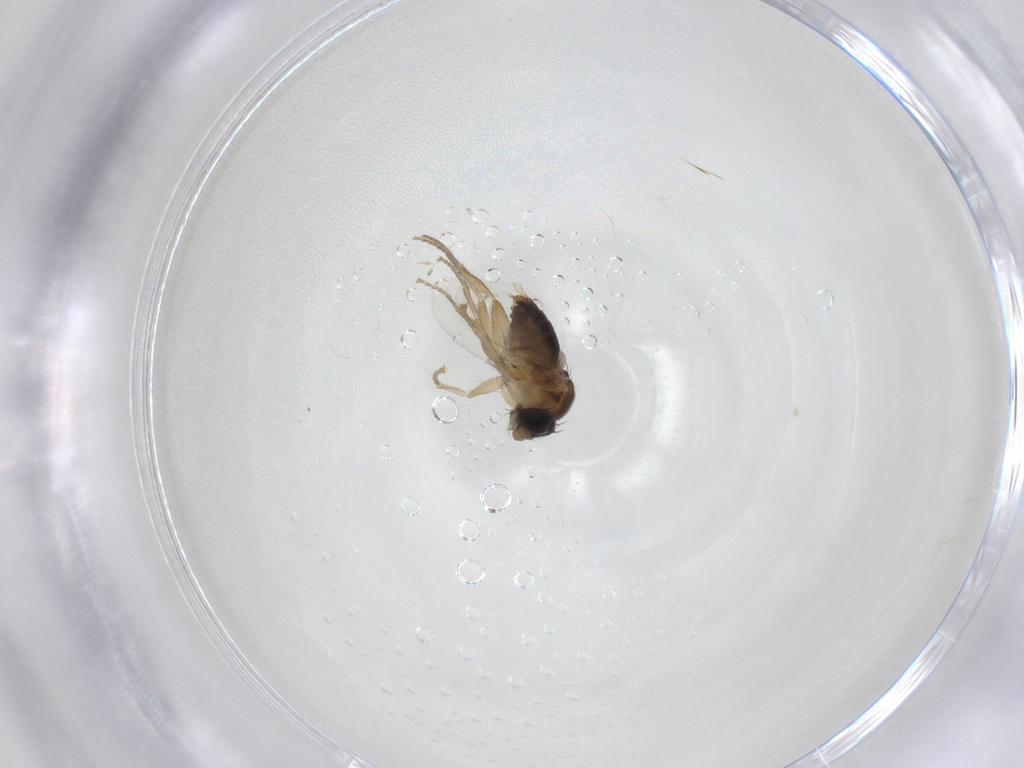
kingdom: Animalia
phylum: Arthropoda
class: Insecta
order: Diptera
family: Phoridae
